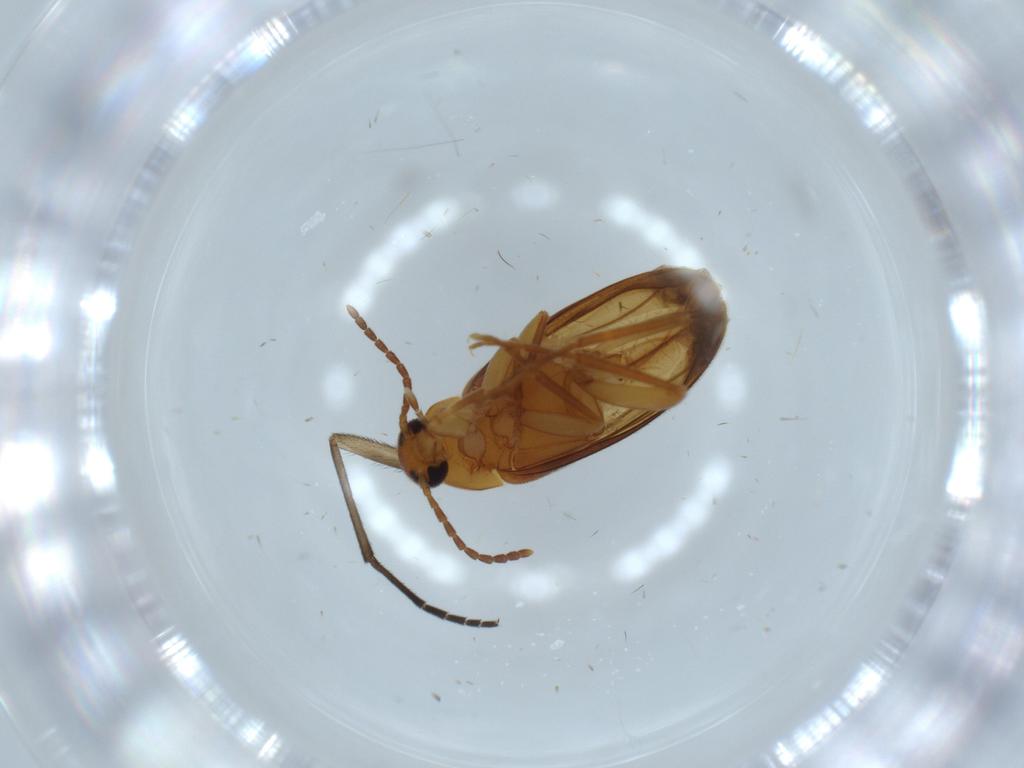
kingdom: Animalia
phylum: Arthropoda
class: Insecta
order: Coleoptera
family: Scraptiidae
